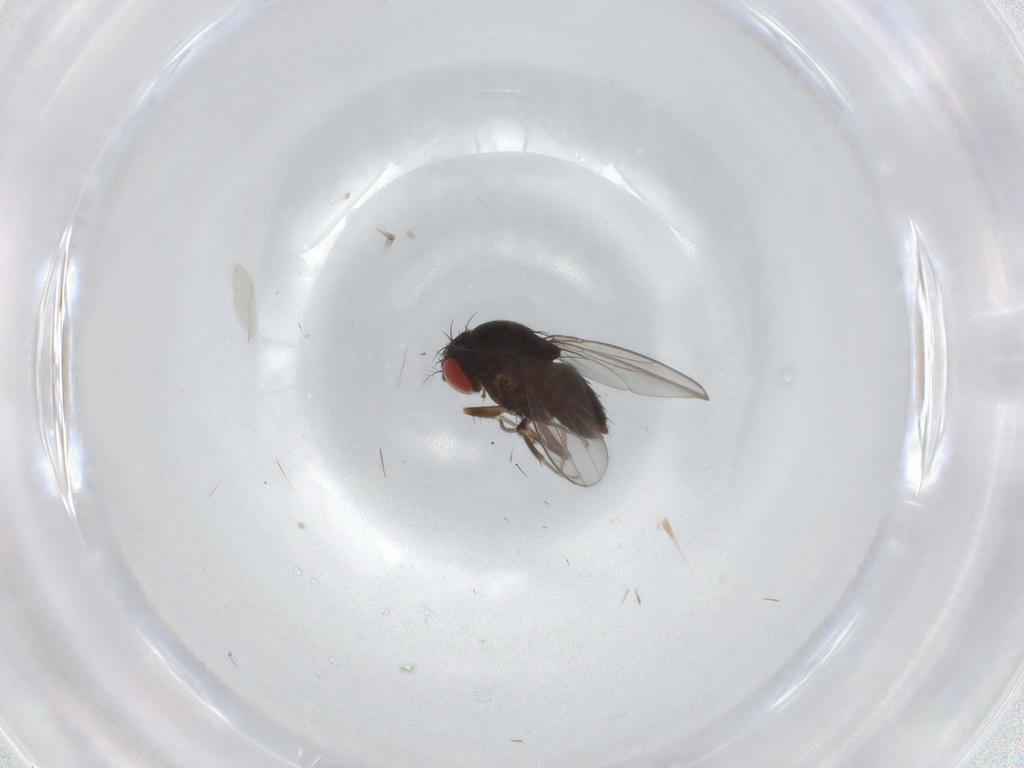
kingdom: Animalia
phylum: Arthropoda
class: Insecta
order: Diptera
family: Drosophilidae
